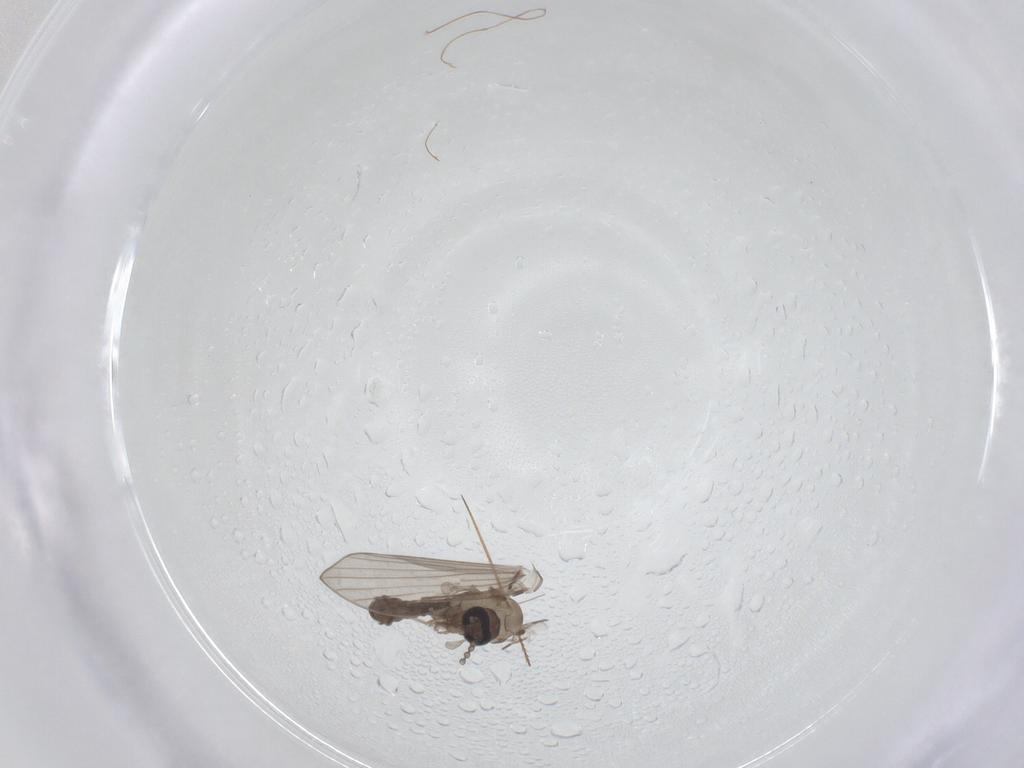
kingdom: Animalia
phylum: Arthropoda
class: Insecta
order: Diptera
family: Psychodidae
